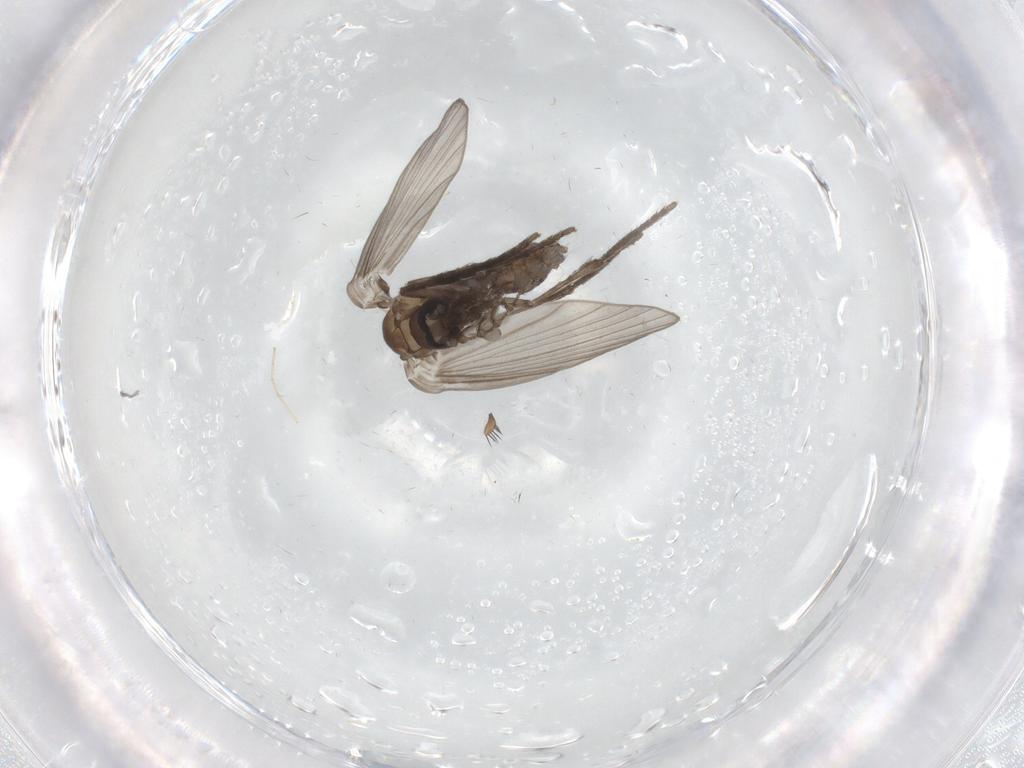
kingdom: Animalia
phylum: Arthropoda
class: Insecta
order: Diptera
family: Psychodidae
